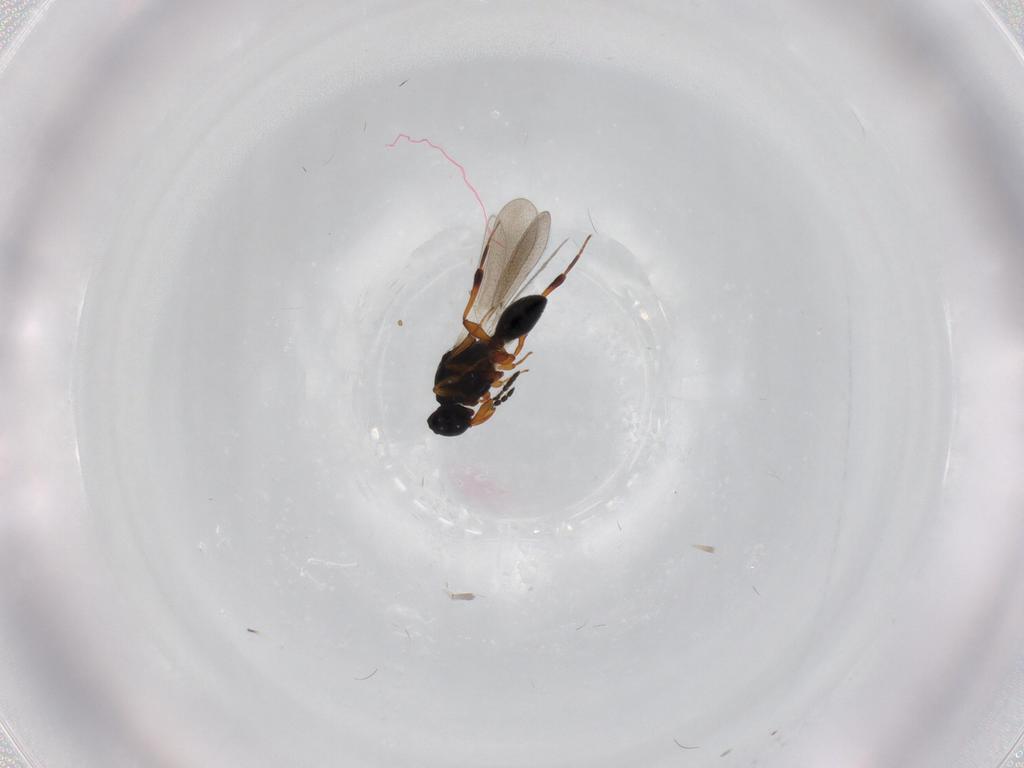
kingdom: Animalia
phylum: Arthropoda
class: Insecta
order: Hymenoptera
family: Platygastridae
